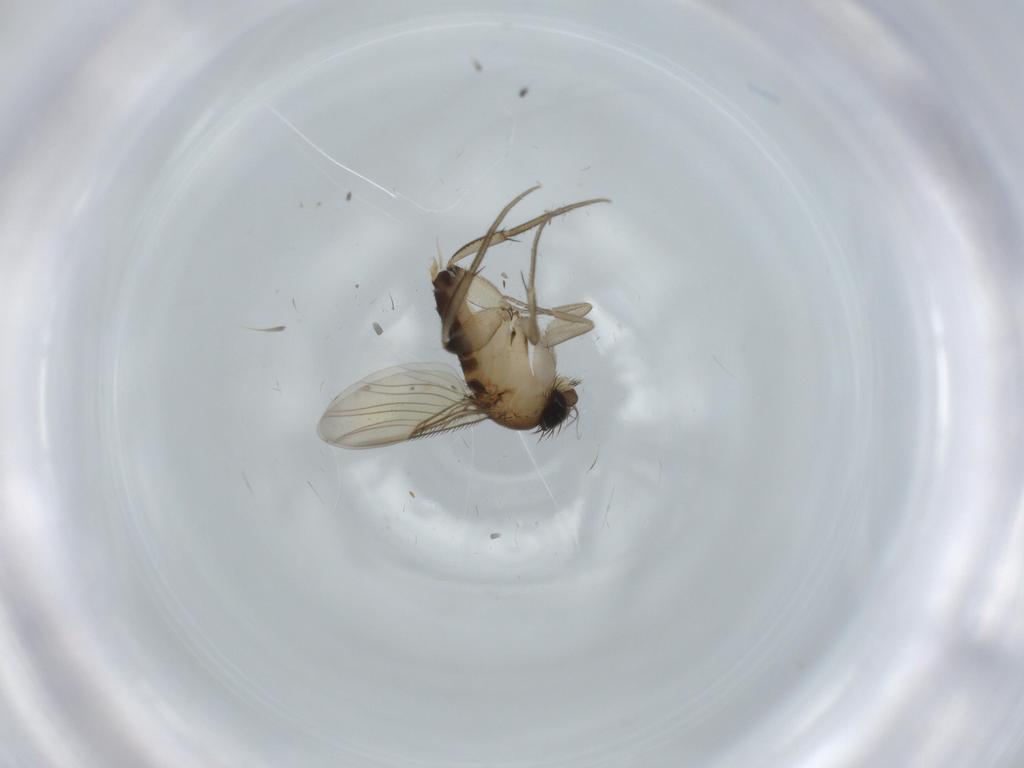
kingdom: Animalia
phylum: Arthropoda
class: Insecta
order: Diptera
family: Phoridae
